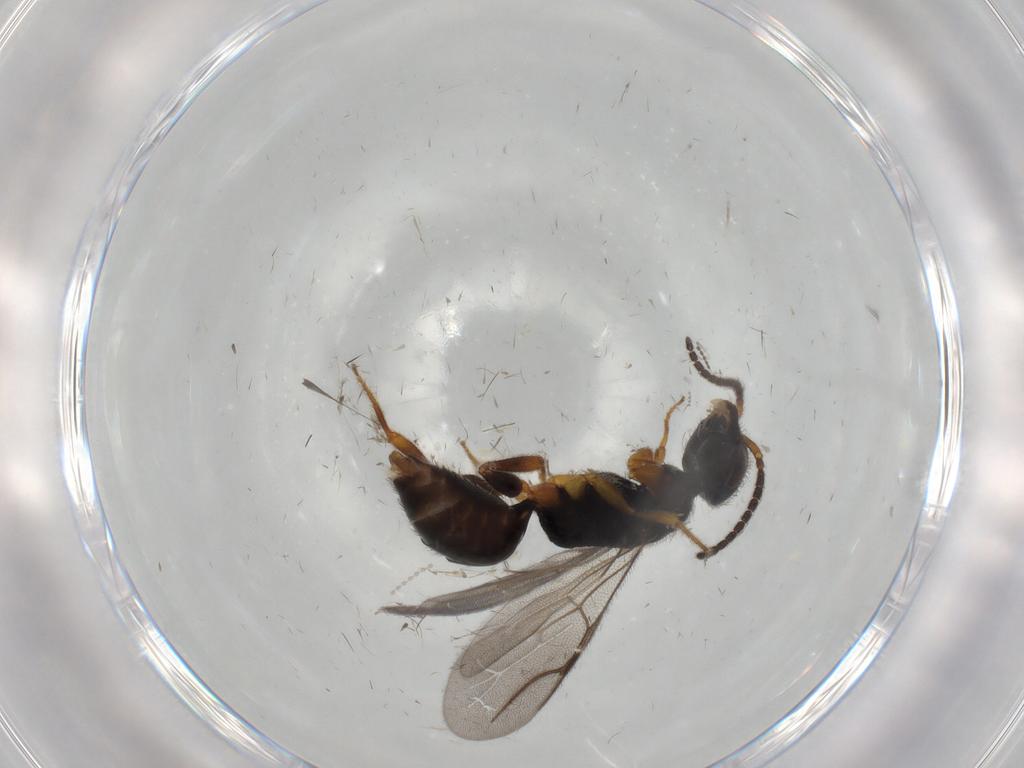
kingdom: Animalia
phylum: Arthropoda
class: Insecta
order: Hymenoptera
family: Bethylidae
